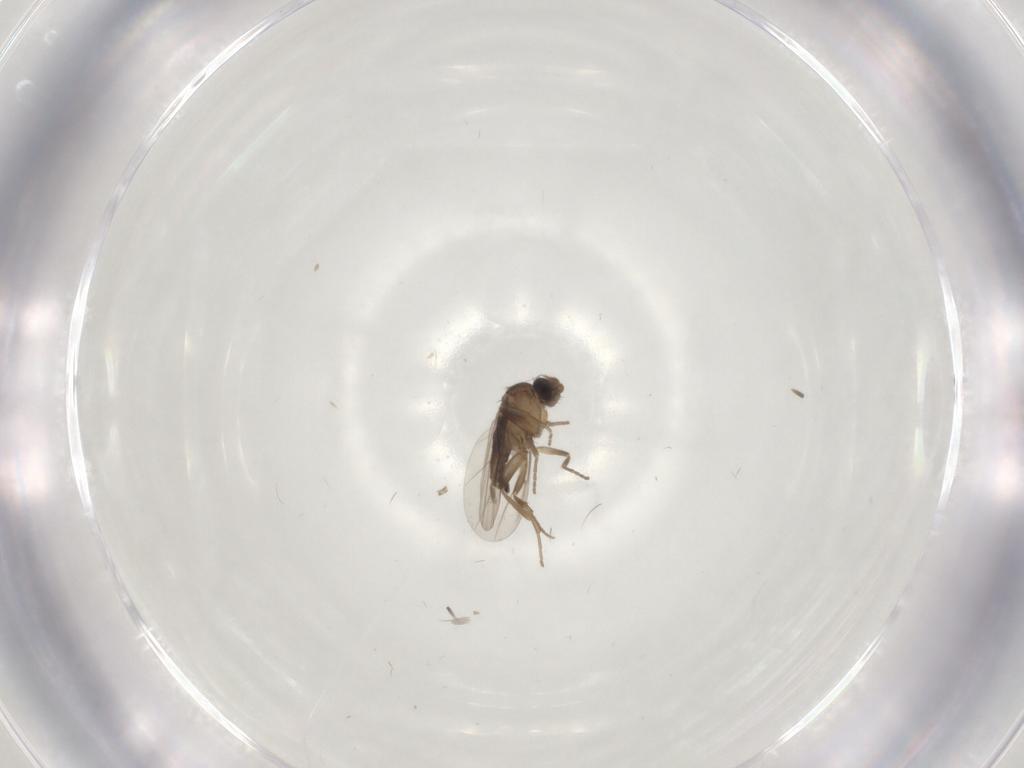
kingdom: Animalia
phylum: Arthropoda
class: Insecta
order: Diptera
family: Phoridae
